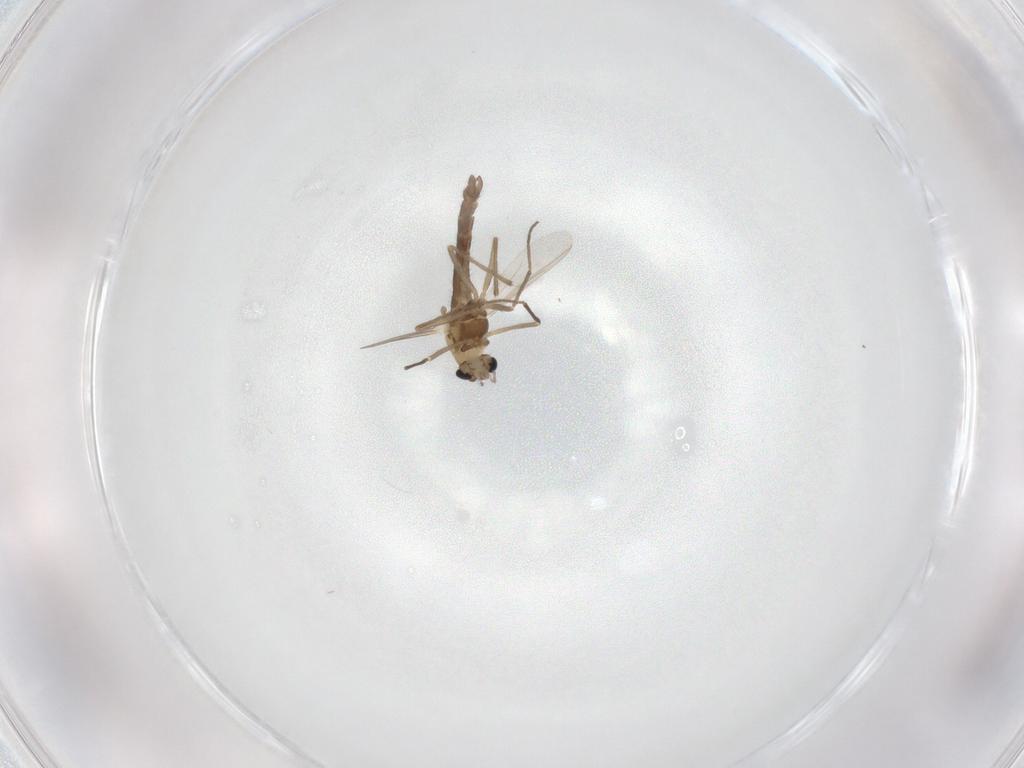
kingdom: Animalia
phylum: Arthropoda
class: Insecta
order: Diptera
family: Chironomidae
